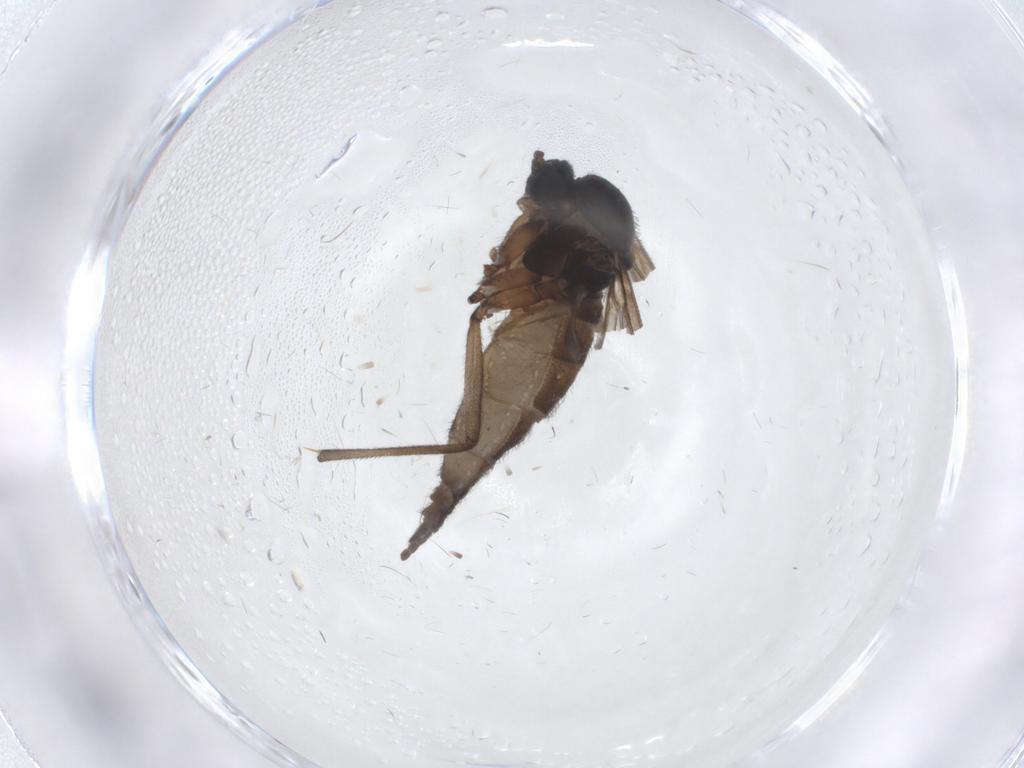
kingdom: Animalia
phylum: Arthropoda
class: Insecta
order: Diptera
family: Sciaridae
